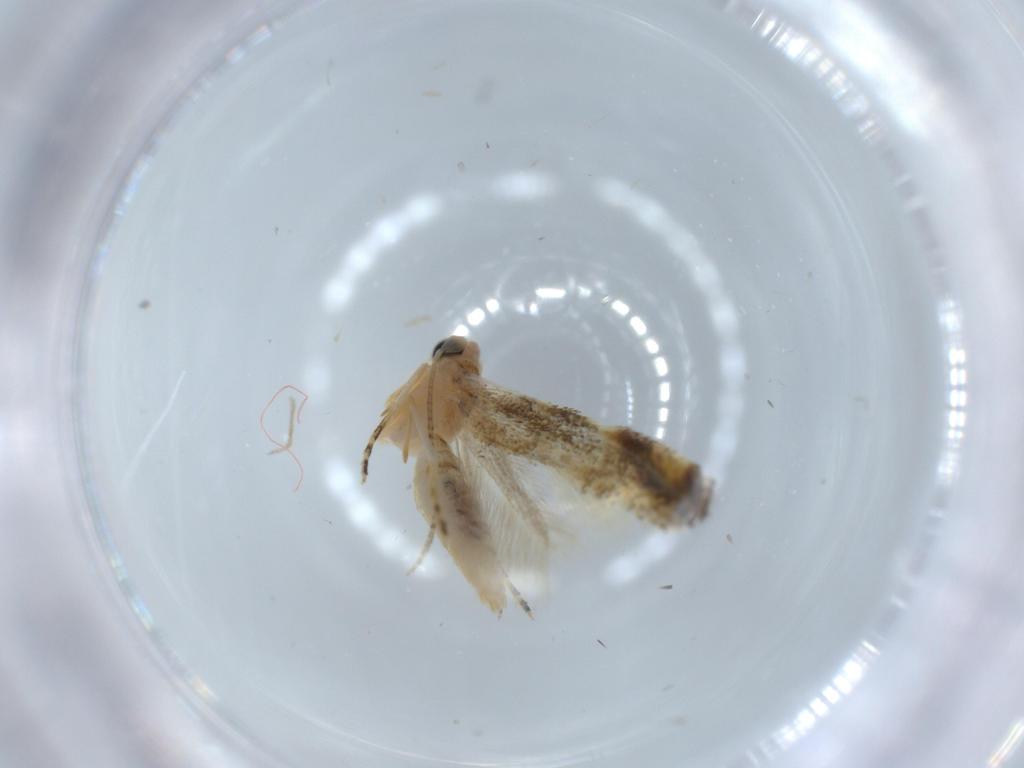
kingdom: Animalia
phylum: Arthropoda
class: Insecta
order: Lepidoptera
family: Bucculatricidae
